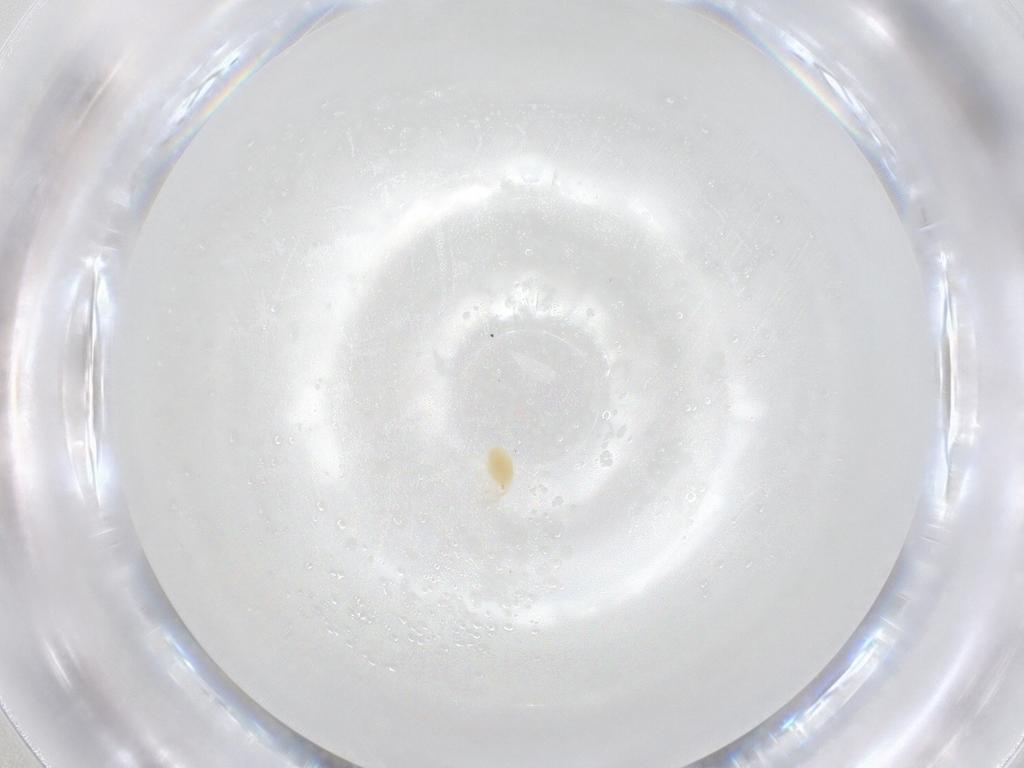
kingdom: Animalia
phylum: Arthropoda
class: Arachnida
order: Trombidiformes
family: Tetranychidae
